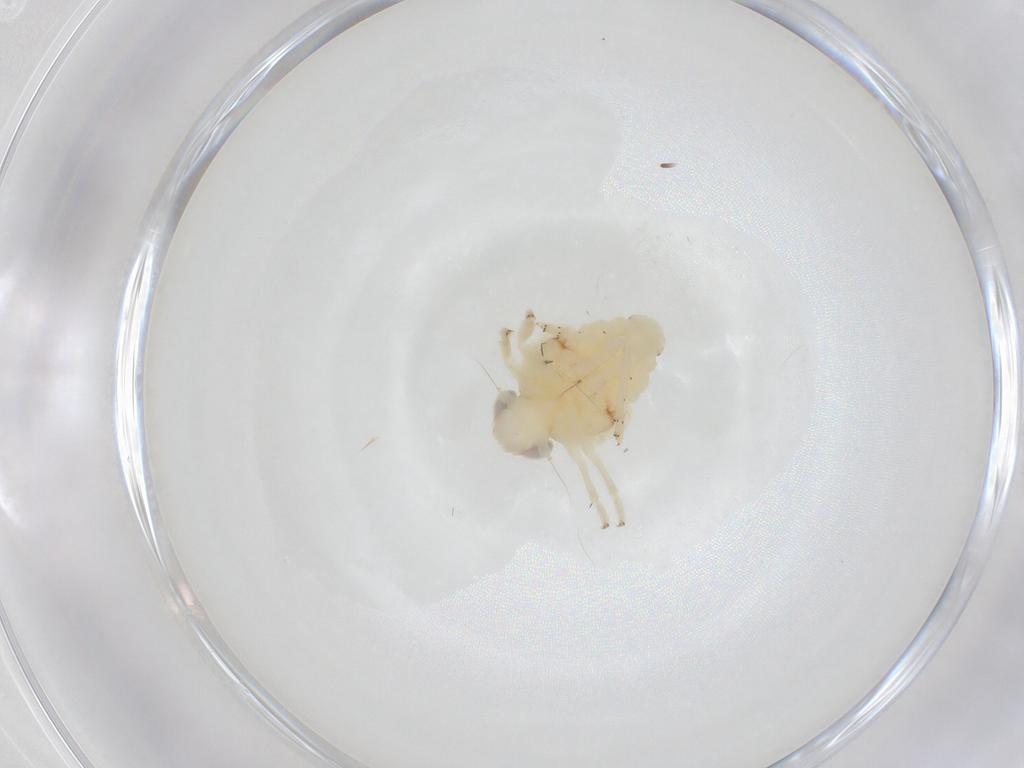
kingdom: Animalia
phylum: Arthropoda
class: Insecta
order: Hemiptera
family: Nogodinidae
